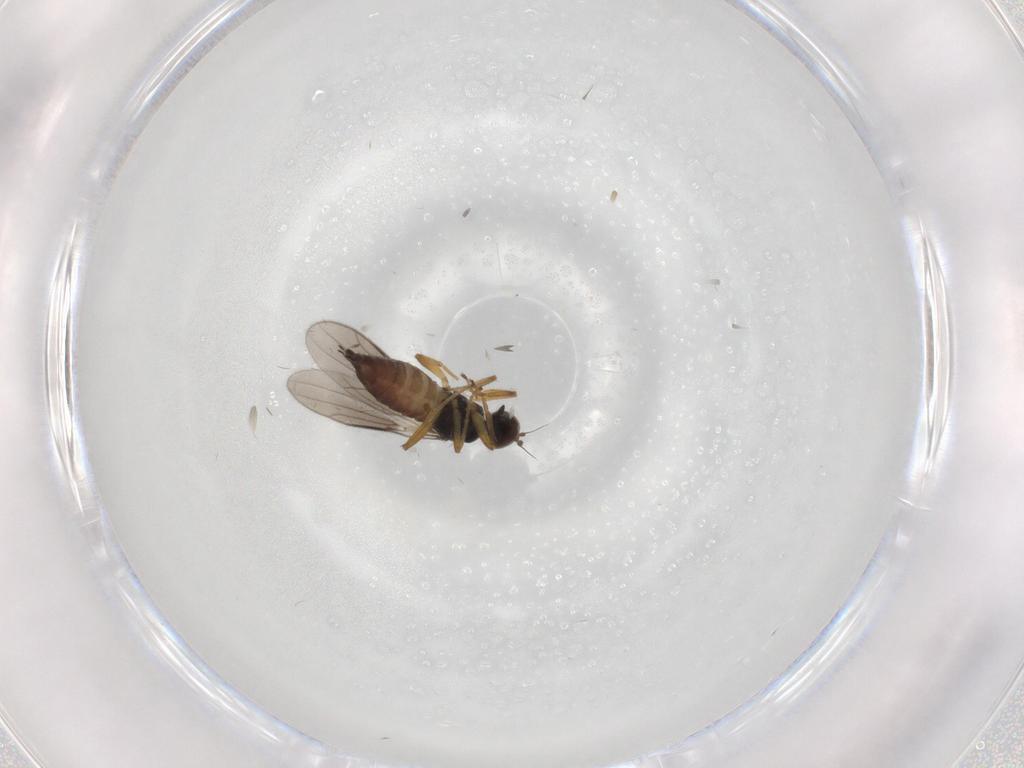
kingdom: Animalia
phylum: Arthropoda
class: Insecta
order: Diptera
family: Hybotidae
